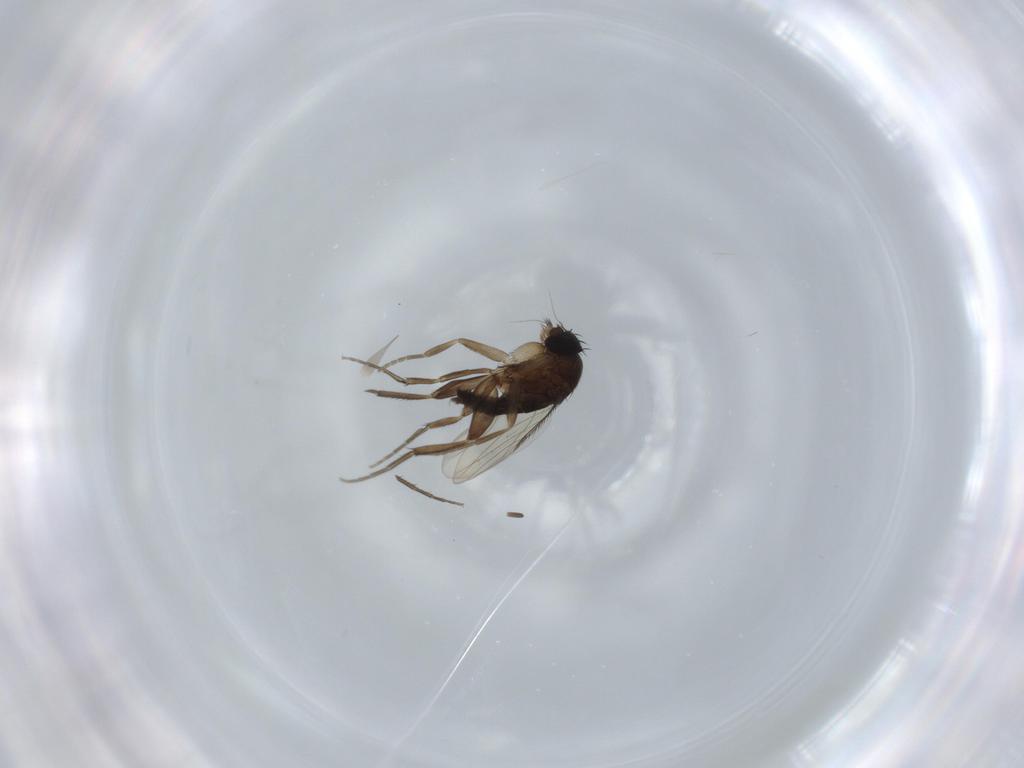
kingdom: Animalia
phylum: Arthropoda
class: Insecta
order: Diptera
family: Phoridae
